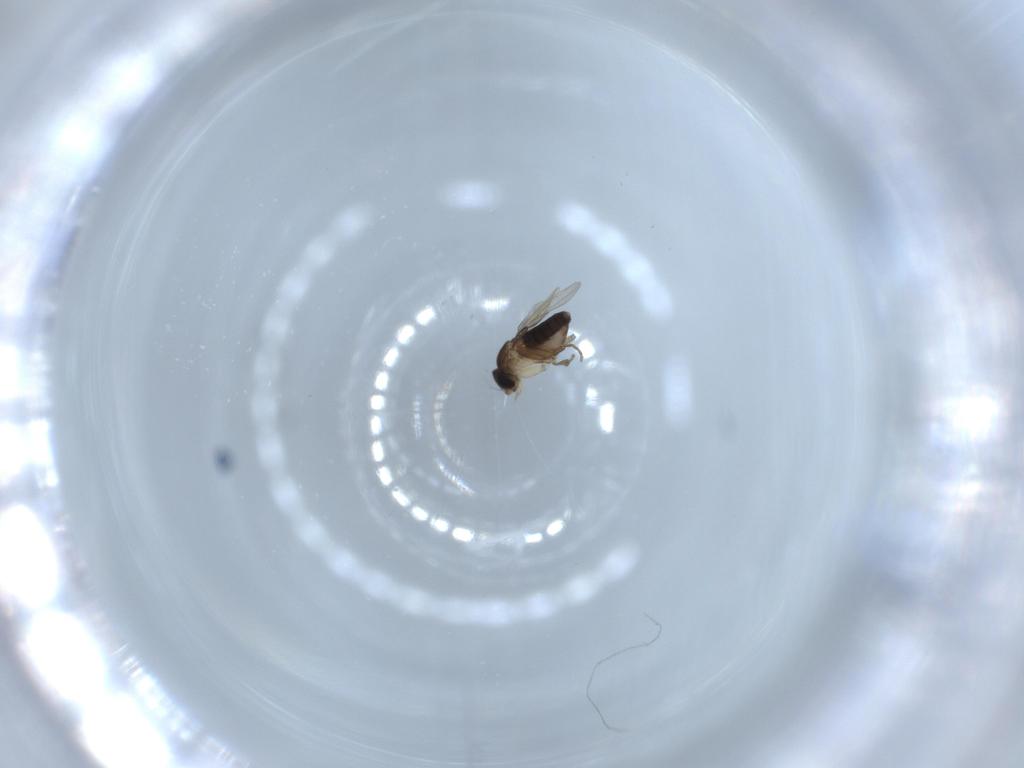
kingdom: Animalia
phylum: Arthropoda
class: Insecta
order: Diptera
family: Phoridae
